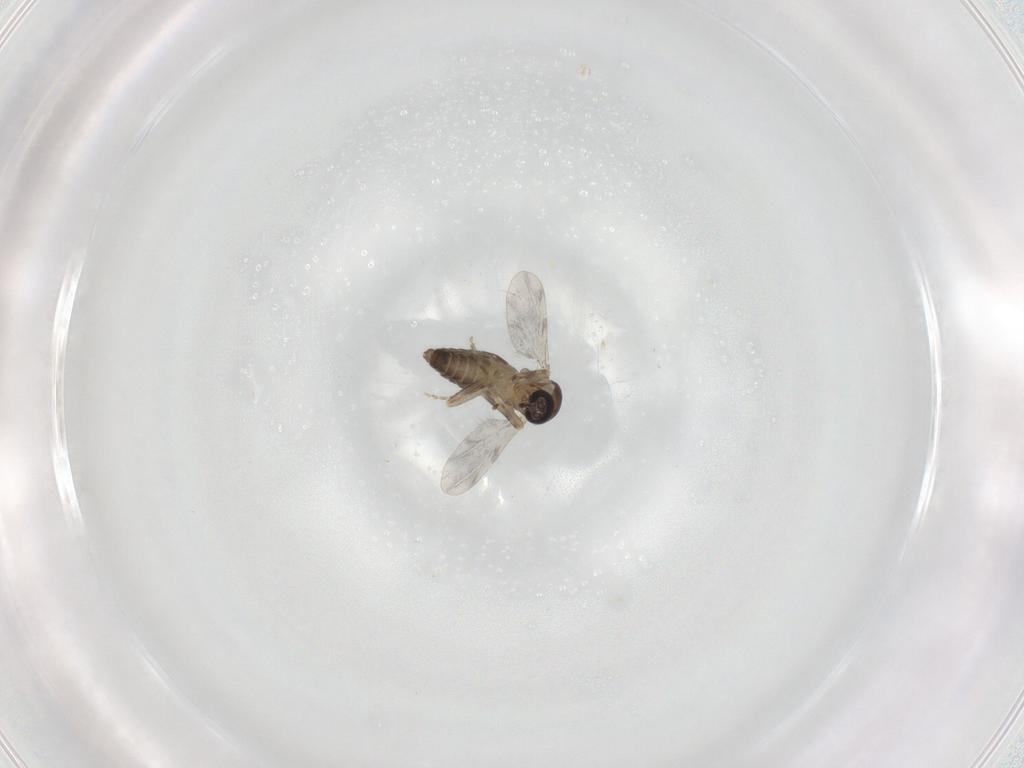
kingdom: Animalia
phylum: Arthropoda
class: Insecta
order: Diptera
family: Ceratopogonidae
